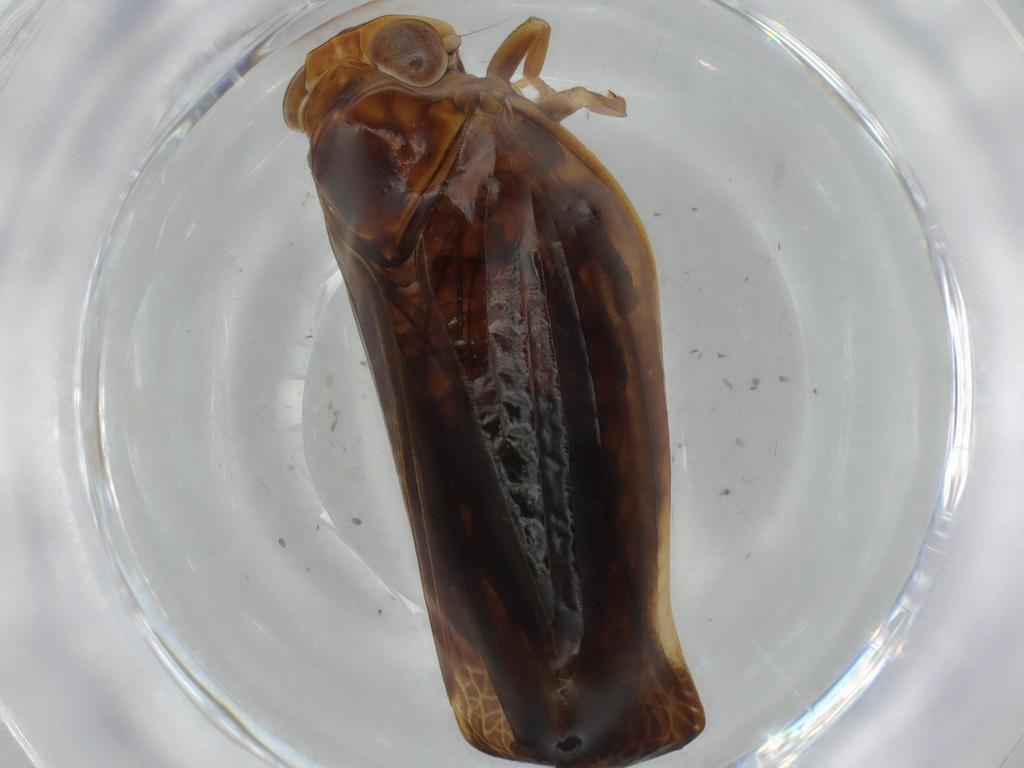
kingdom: Animalia
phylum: Arthropoda
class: Insecta
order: Hemiptera
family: Nogodinidae
